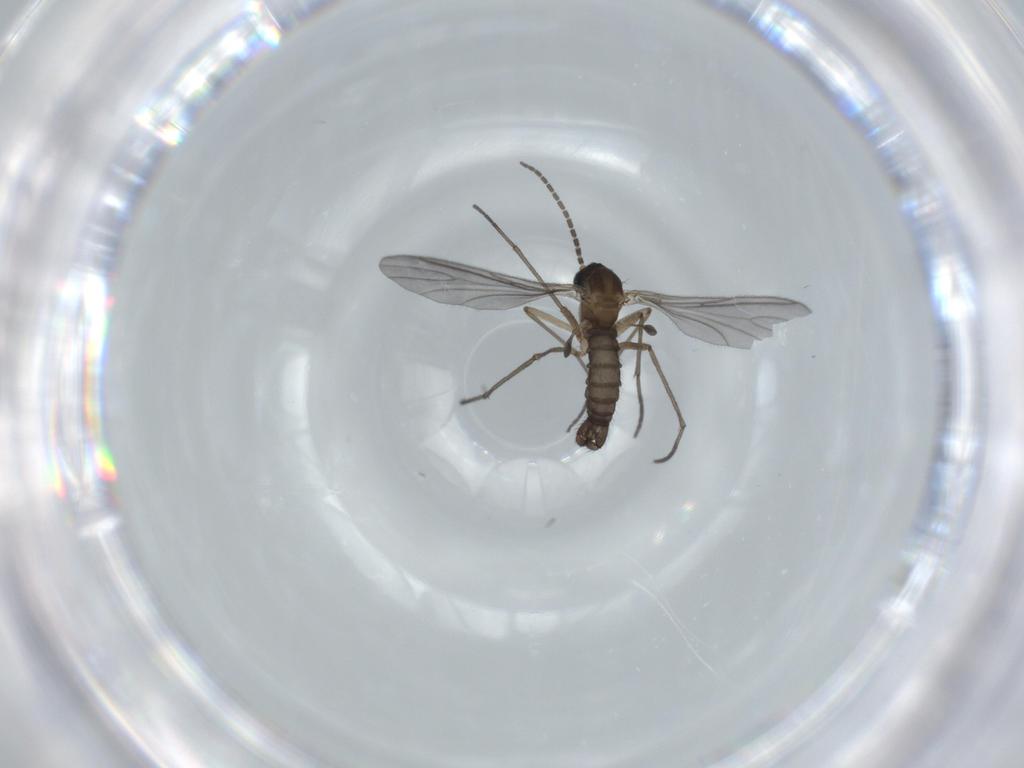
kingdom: Animalia
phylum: Arthropoda
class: Insecta
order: Diptera
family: Sciaridae
